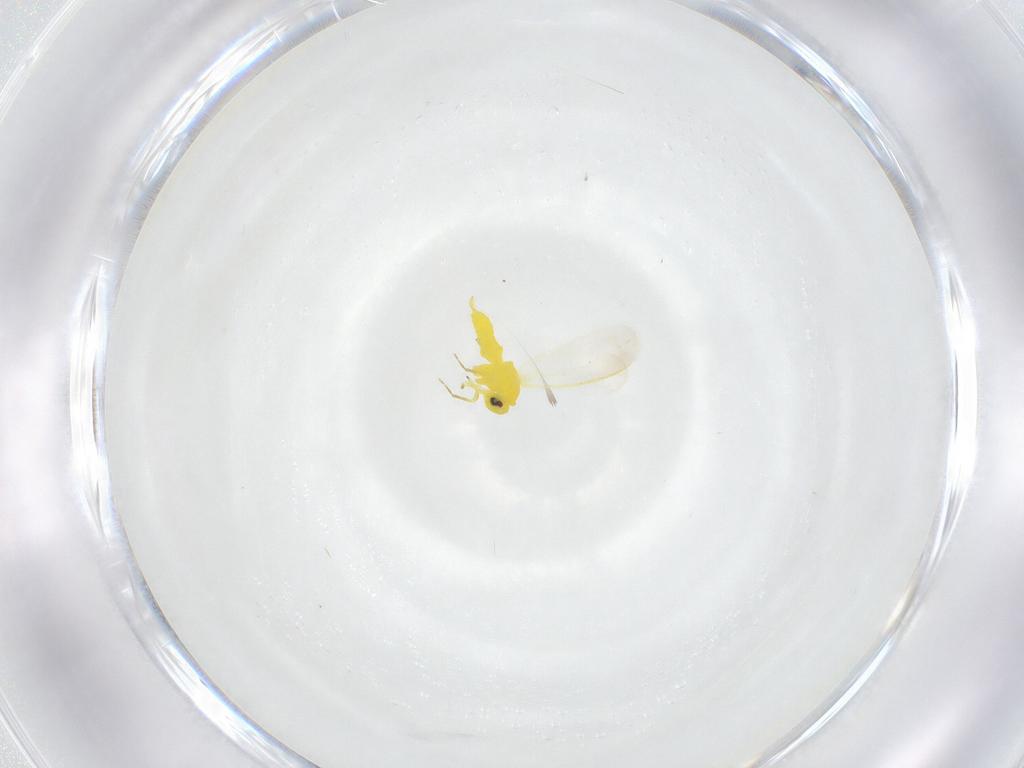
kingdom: Animalia
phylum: Arthropoda
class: Insecta
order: Hemiptera
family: Aleyrodidae
